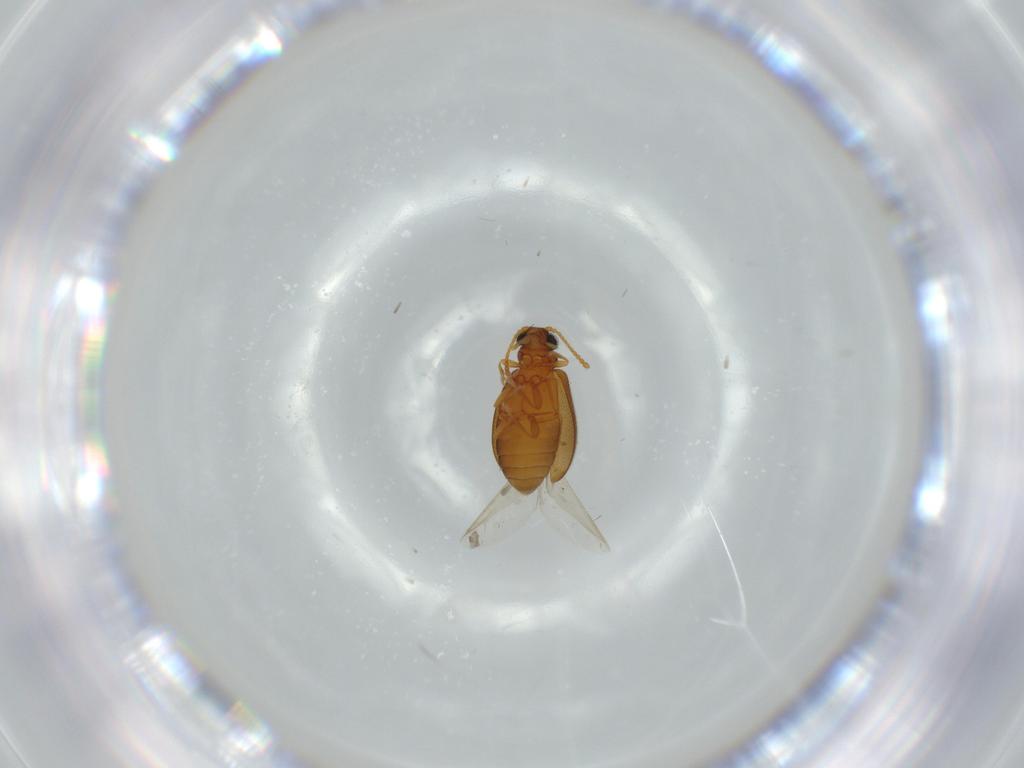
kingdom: Animalia
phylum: Arthropoda
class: Insecta
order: Coleoptera
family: Aderidae
